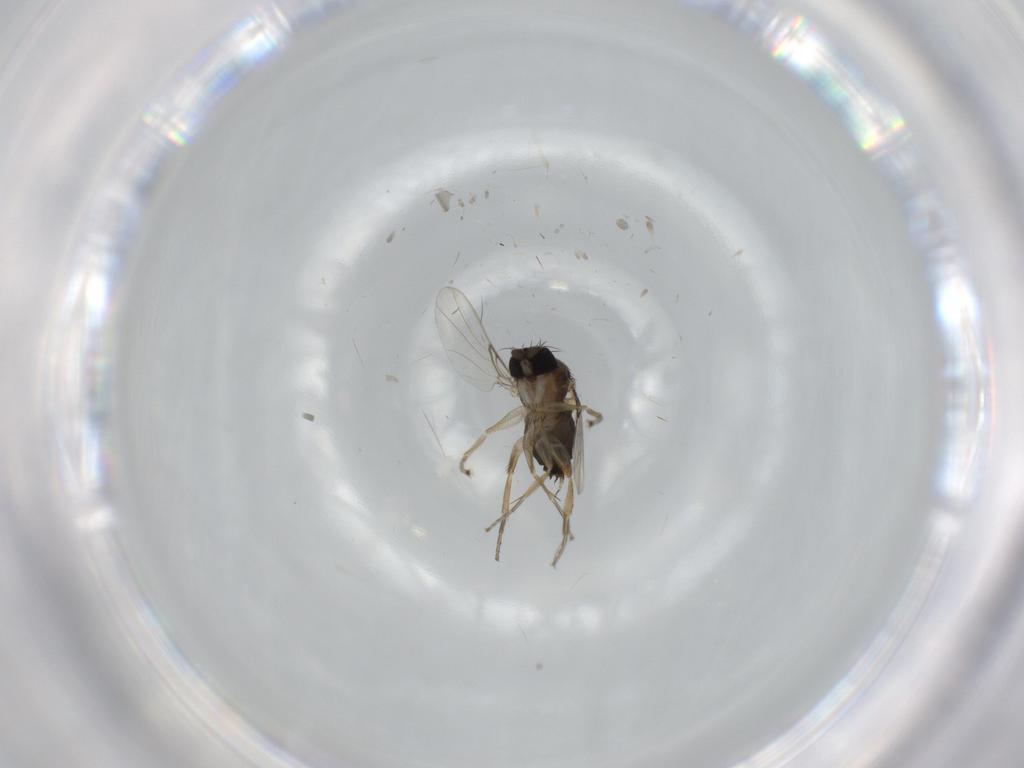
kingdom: Animalia
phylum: Arthropoda
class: Insecta
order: Diptera
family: Phoridae
